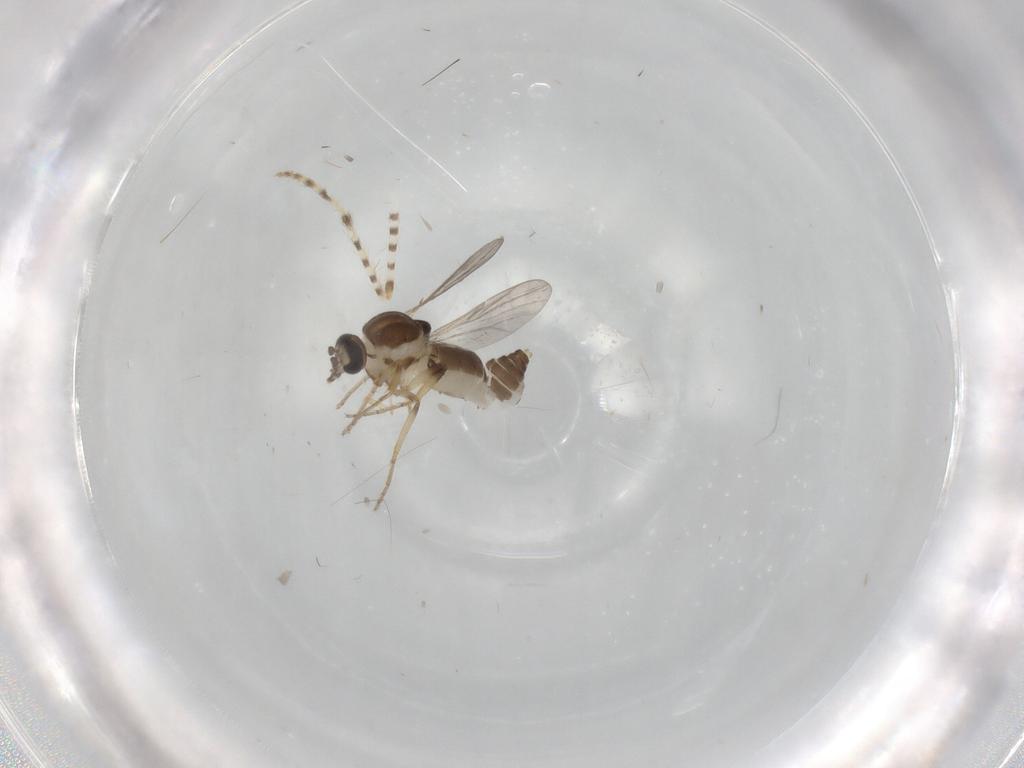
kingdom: Animalia
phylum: Arthropoda
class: Insecta
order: Diptera
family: Ceratopogonidae
